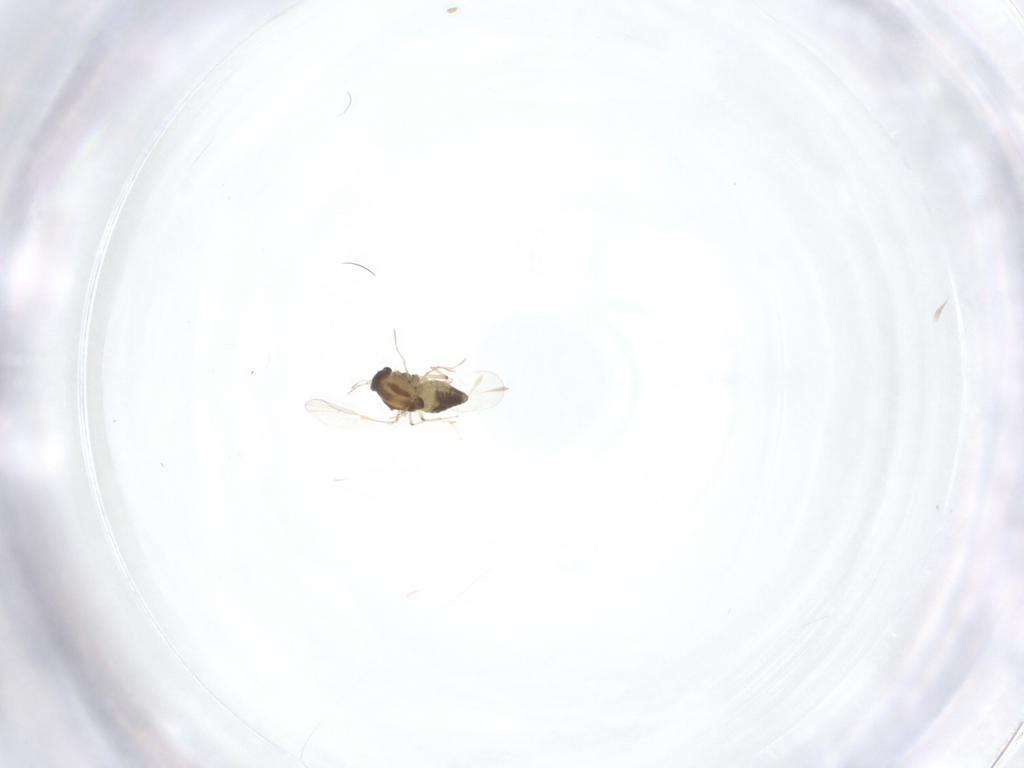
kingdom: Animalia
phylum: Arthropoda
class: Insecta
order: Diptera
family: Chironomidae
